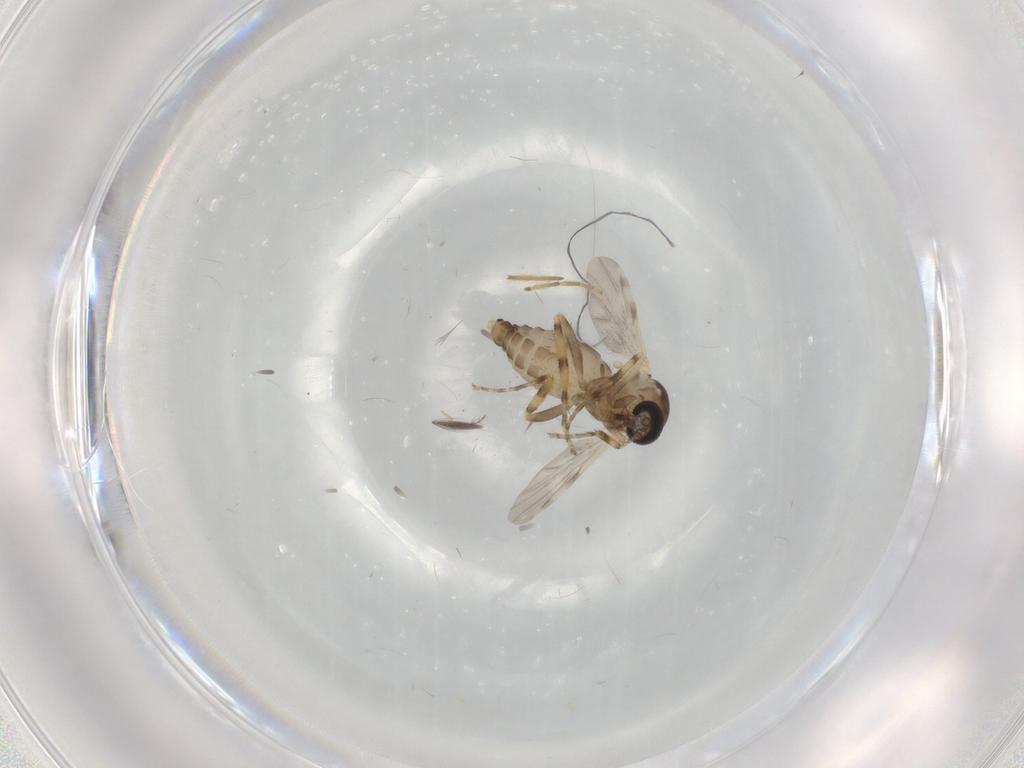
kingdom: Animalia
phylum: Arthropoda
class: Insecta
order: Diptera
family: Ceratopogonidae
